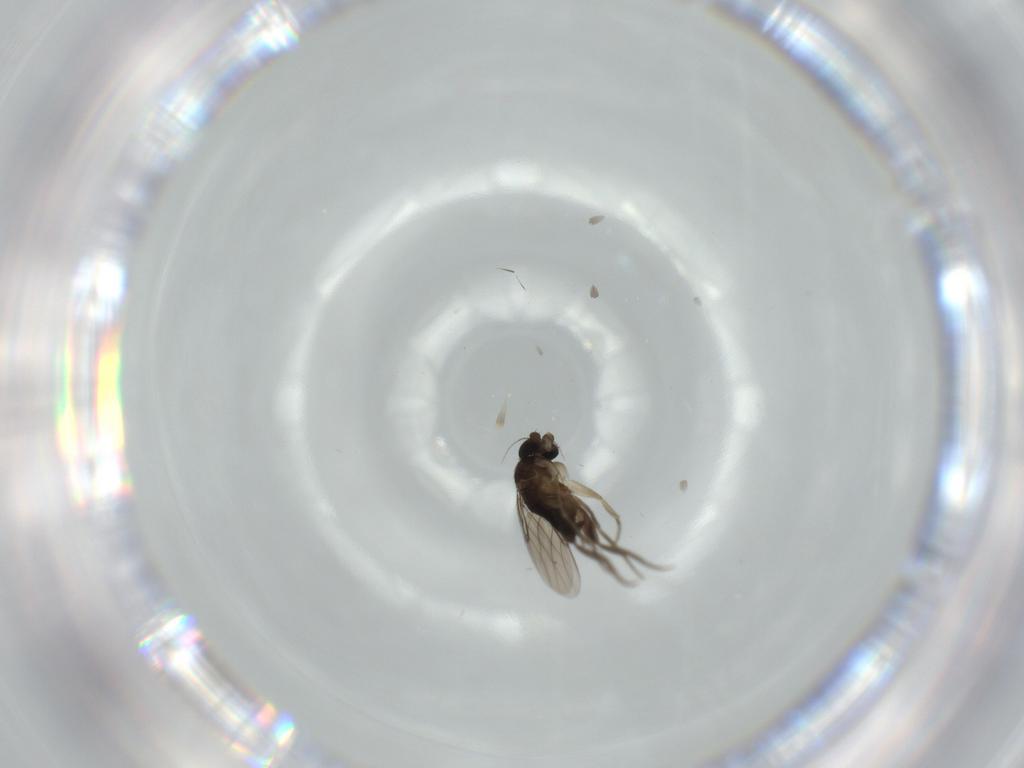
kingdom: Animalia
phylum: Arthropoda
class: Insecta
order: Diptera
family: Phoridae
